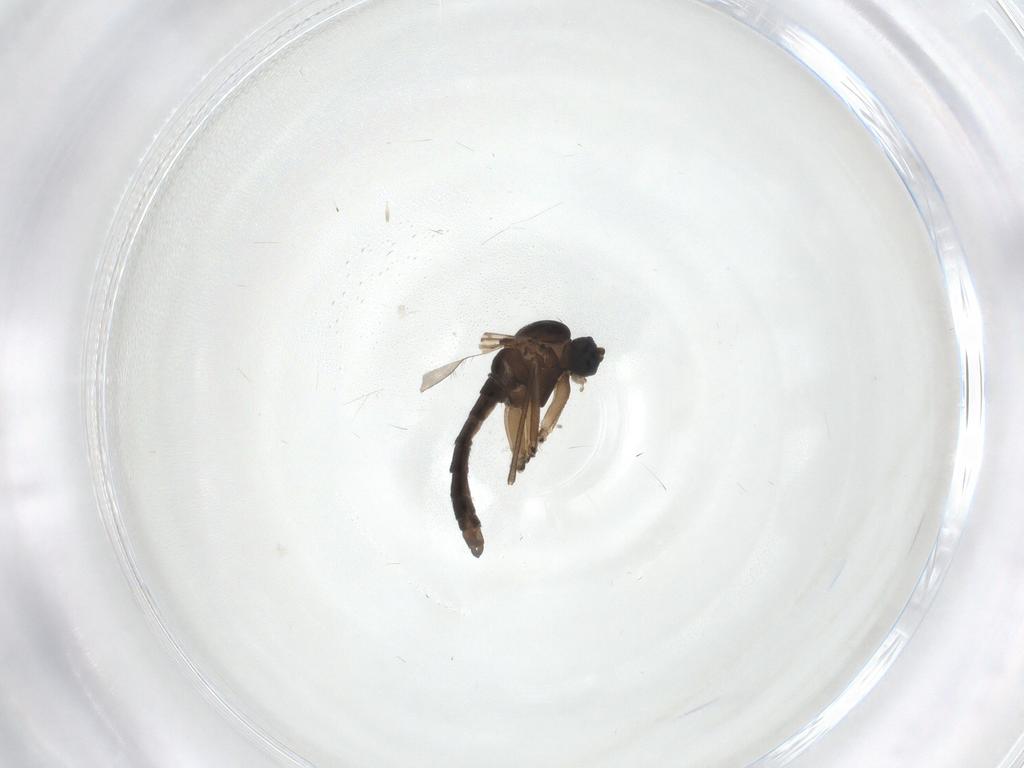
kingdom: Animalia
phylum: Arthropoda
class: Insecta
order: Diptera
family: Sciaridae
